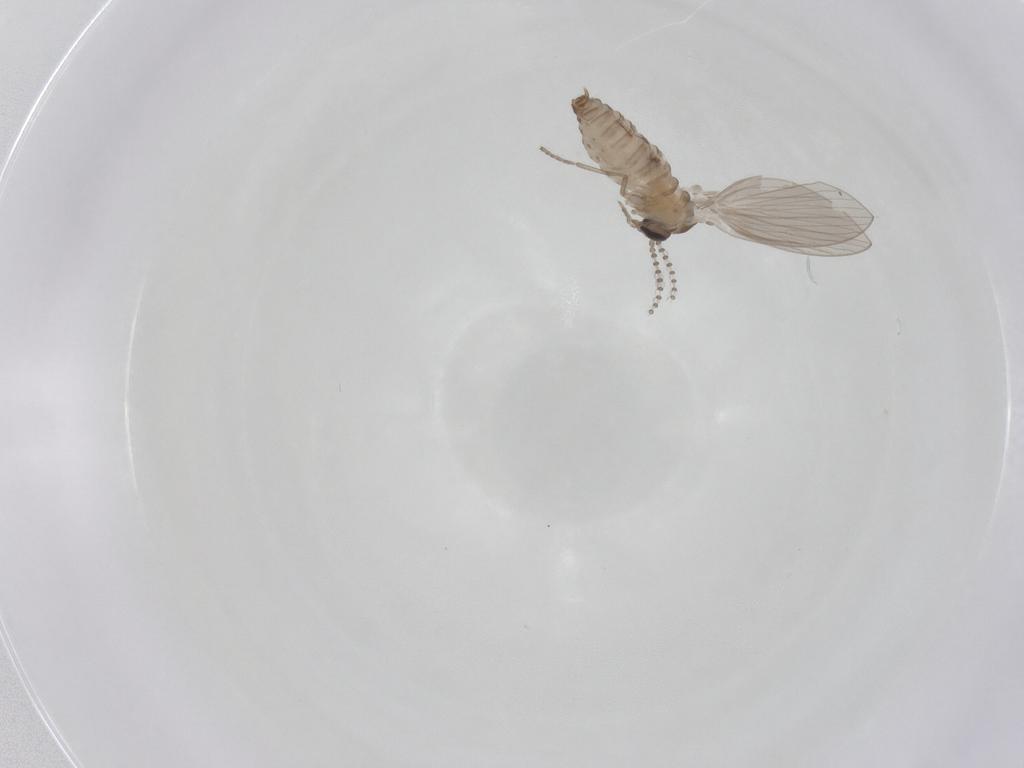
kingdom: Animalia
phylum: Arthropoda
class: Insecta
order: Diptera
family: Psychodidae
